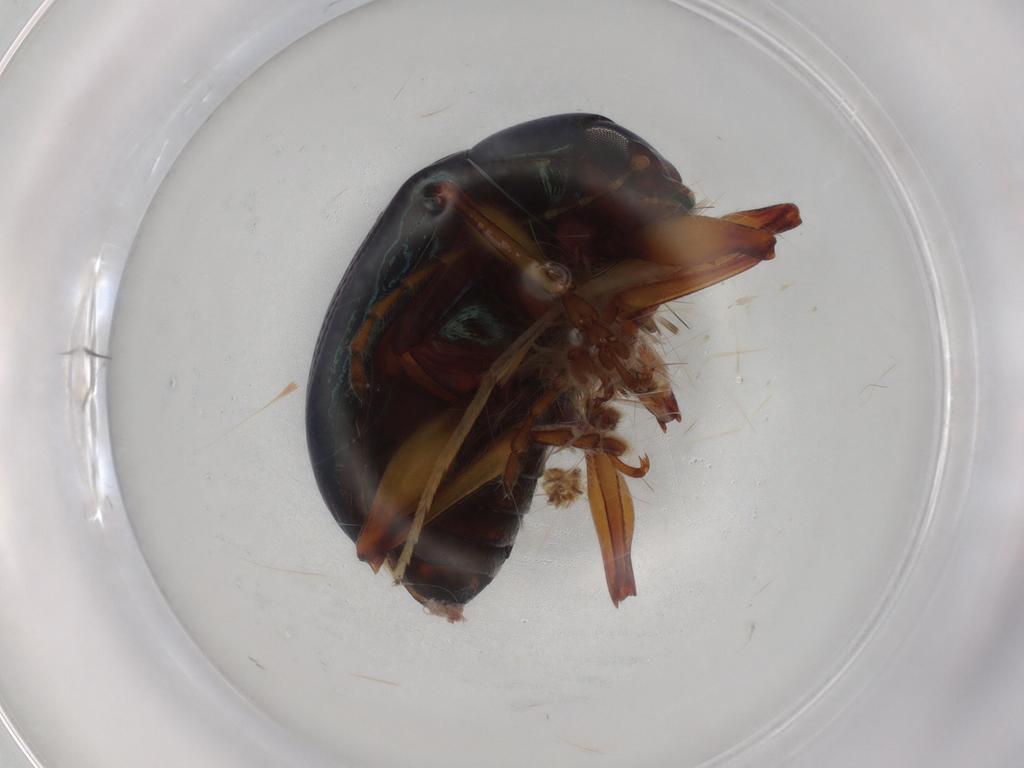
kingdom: Animalia
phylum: Arthropoda
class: Insecta
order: Coleoptera
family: Chrysomelidae
